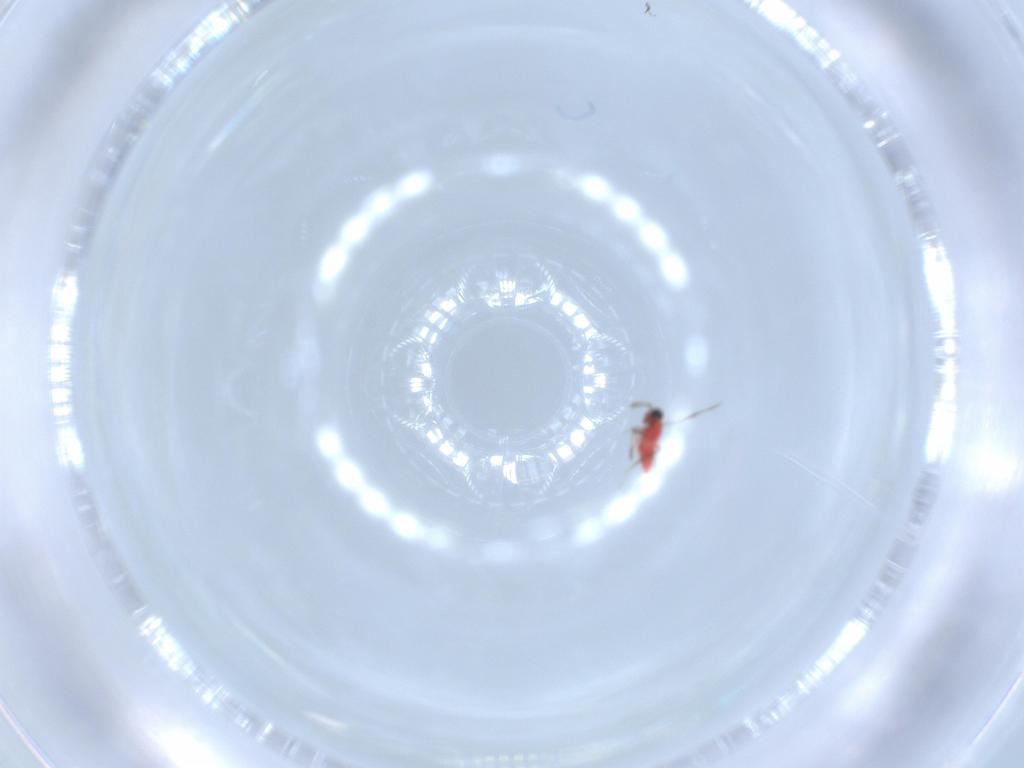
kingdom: Animalia
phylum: Arthropoda
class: Insecta
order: Hymenoptera
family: Trichogrammatidae
